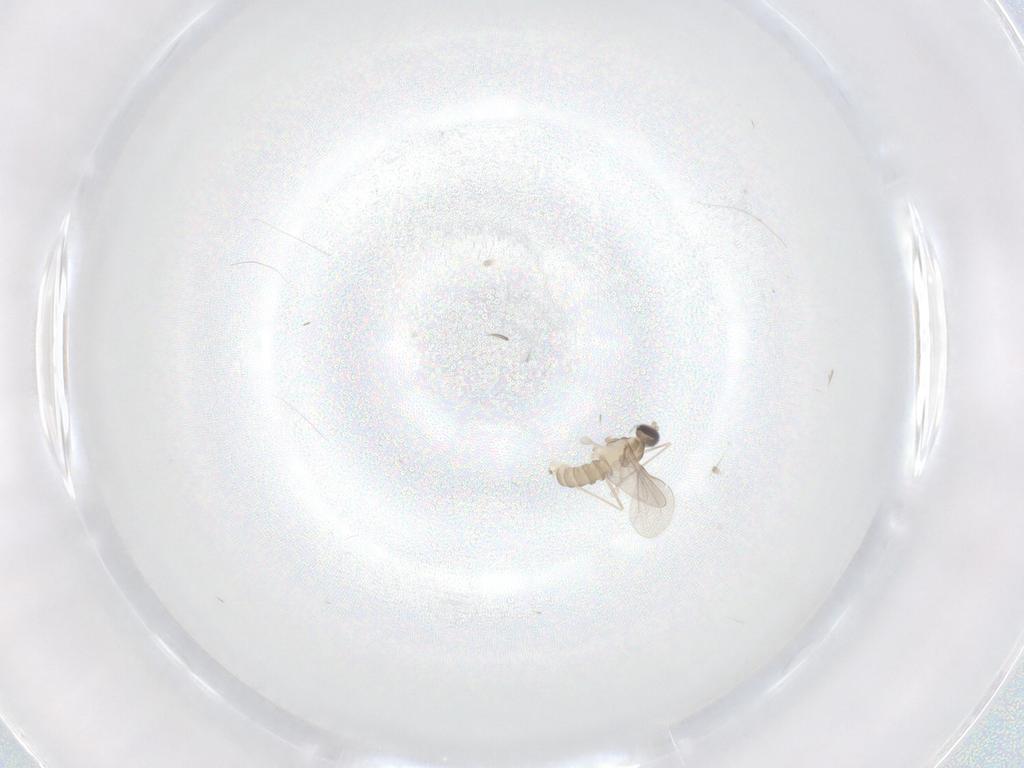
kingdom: Animalia
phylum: Arthropoda
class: Insecta
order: Diptera
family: Cecidomyiidae
